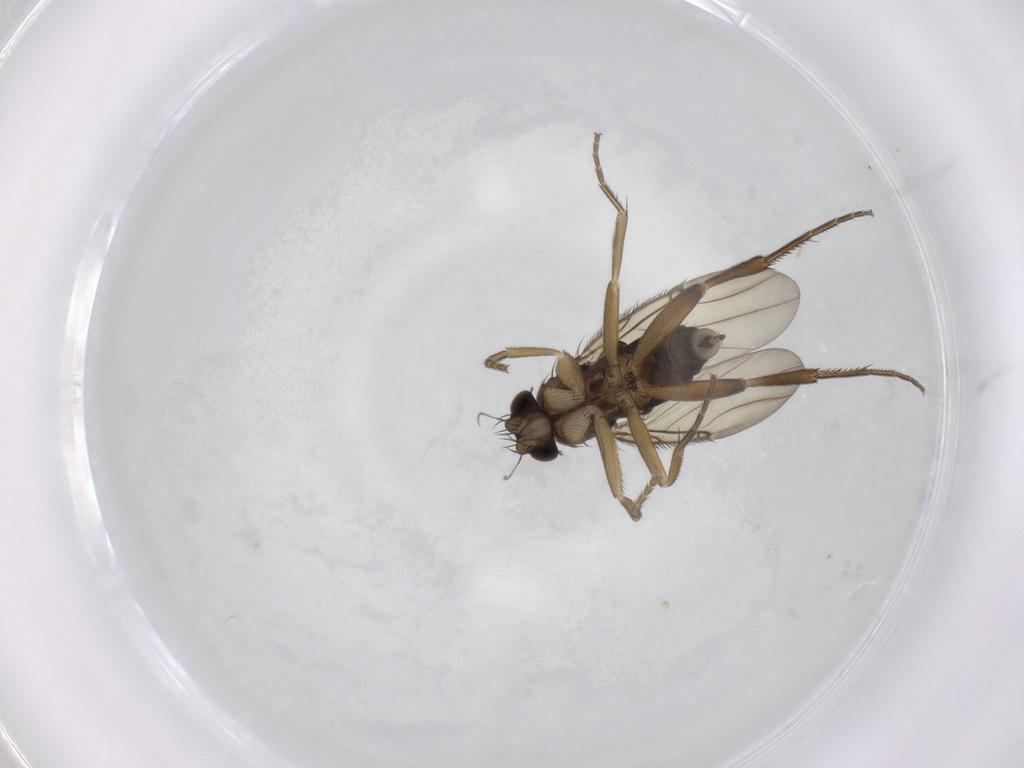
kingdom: Animalia
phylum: Arthropoda
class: Insecta
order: Diptera
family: Phoridae
